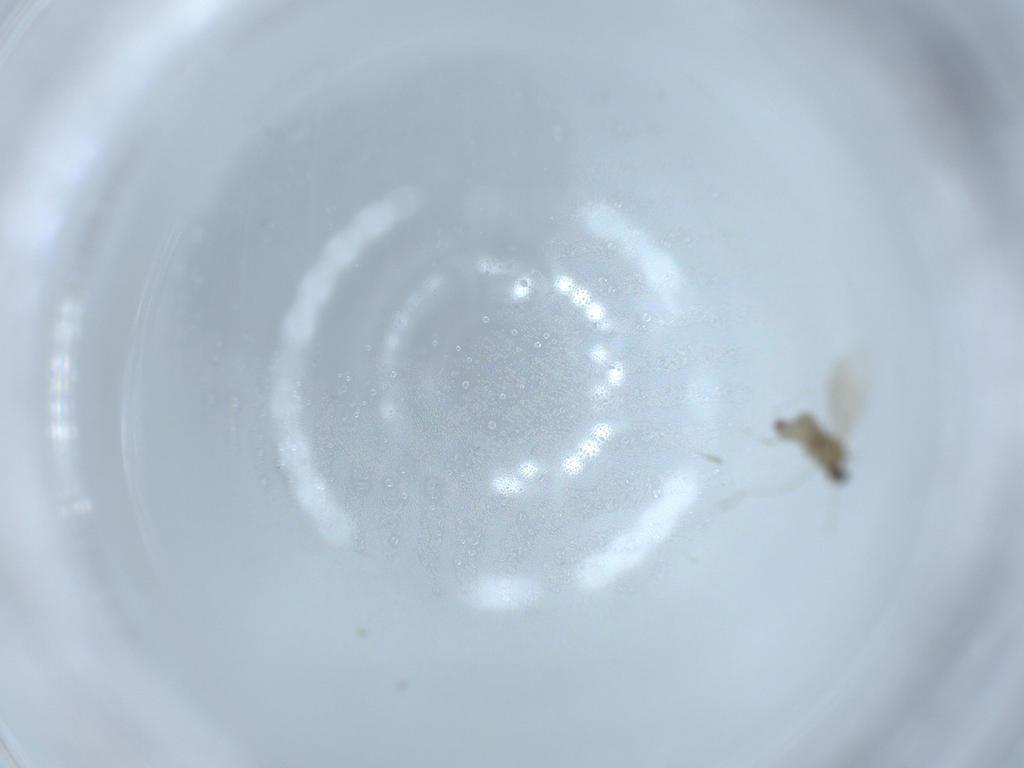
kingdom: Animalia
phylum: Arthropoda
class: Insecta
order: Diptera
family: Cecidomyiidae
